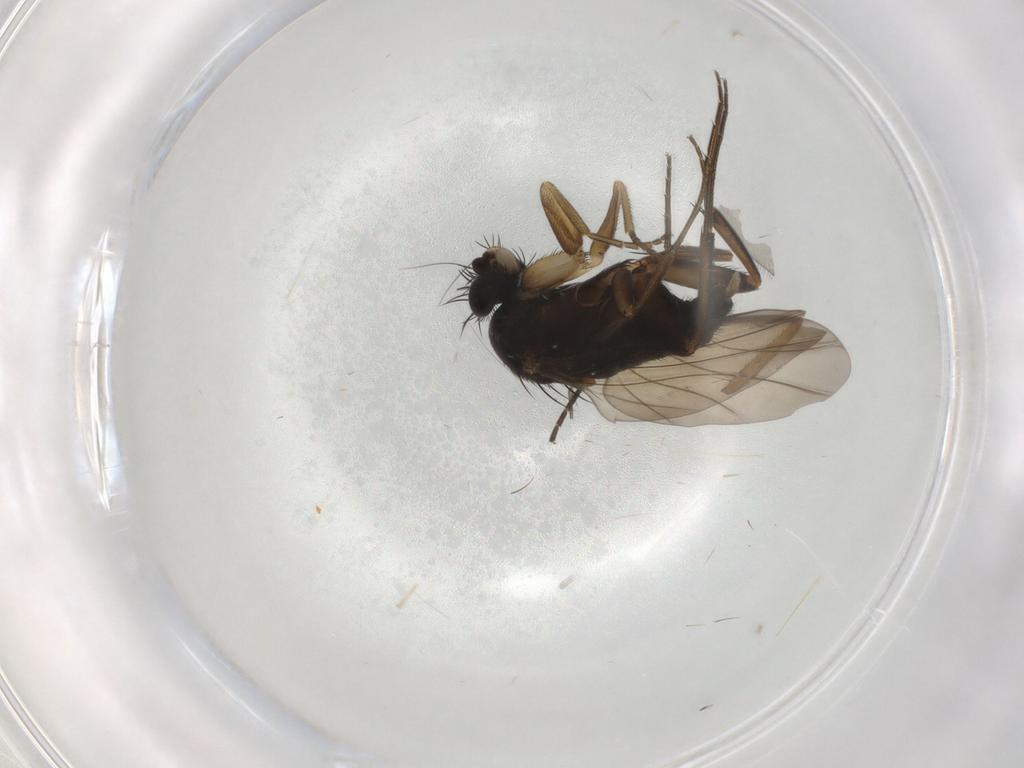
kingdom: Animalia
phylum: Arthropoda
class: Insecta
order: Diptera
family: Phoridae
